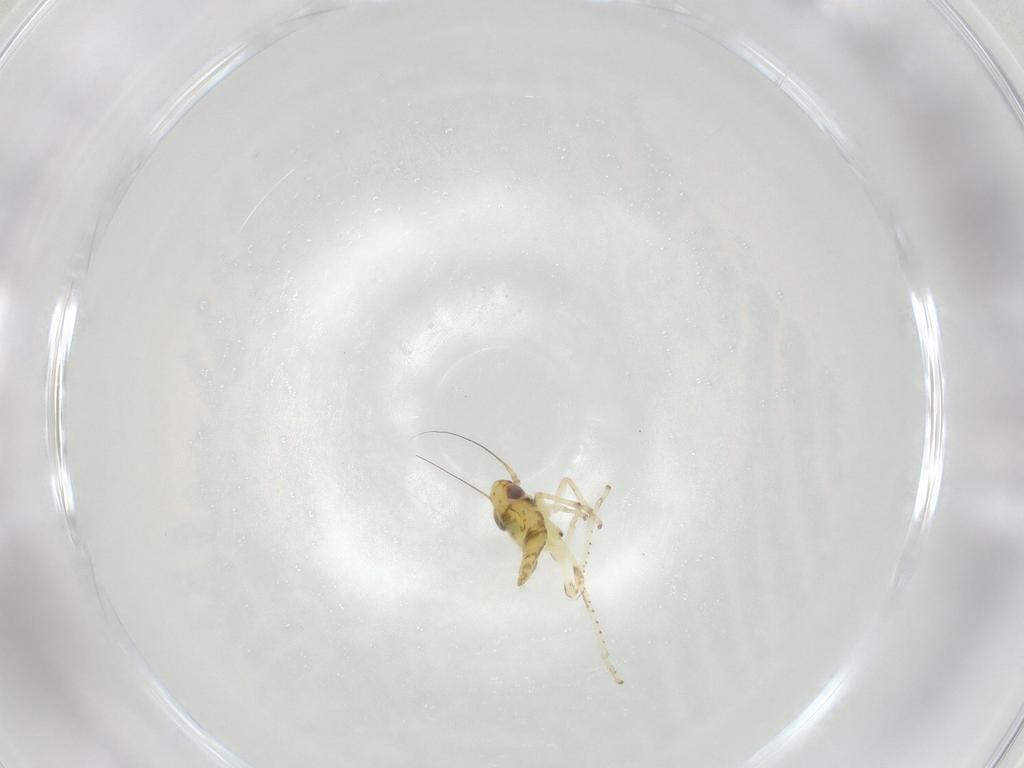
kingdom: Animalia
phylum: Arthropoda
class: Insecta
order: Hemiptera
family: Cicadellidae
